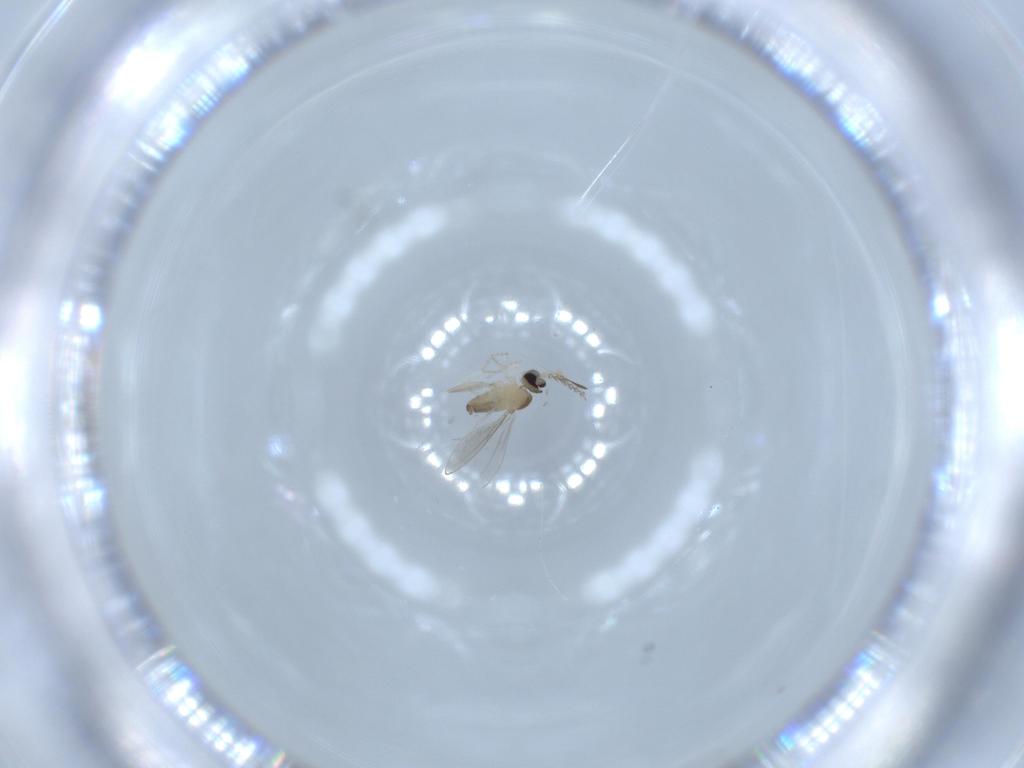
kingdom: Animalia
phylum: Arthropoda
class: Insecta
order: Diptera
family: Cecidomyiidae
